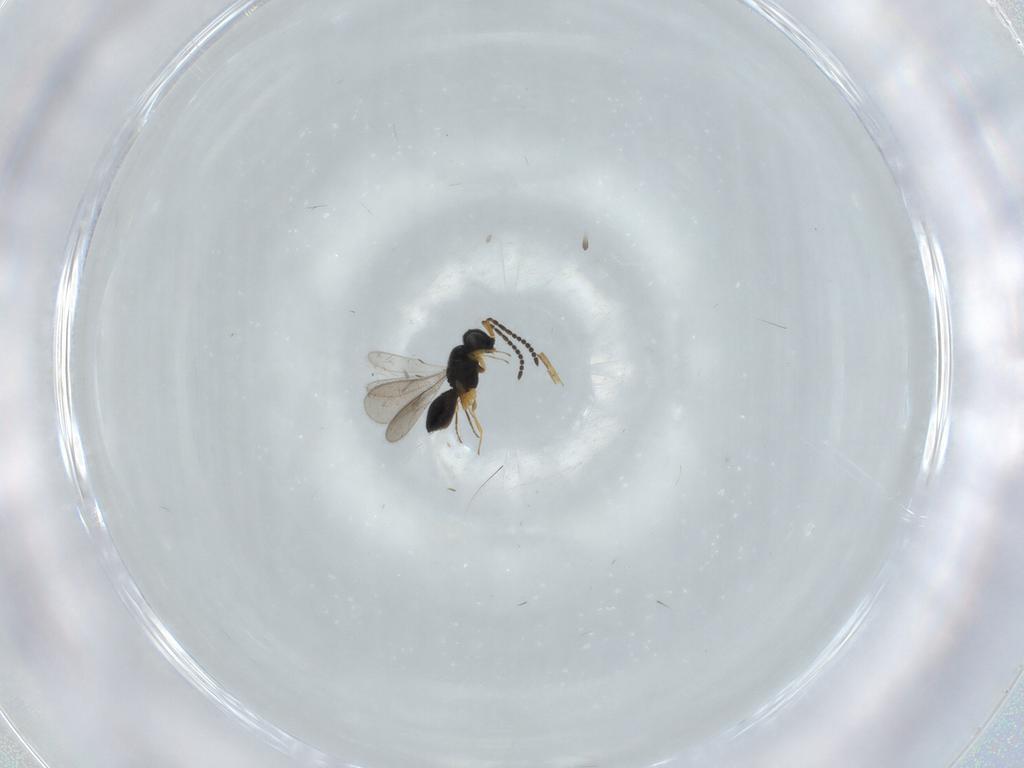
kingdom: Animalia
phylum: Arthropoda
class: Insecta
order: Hymenoptera
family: Scelionidae
